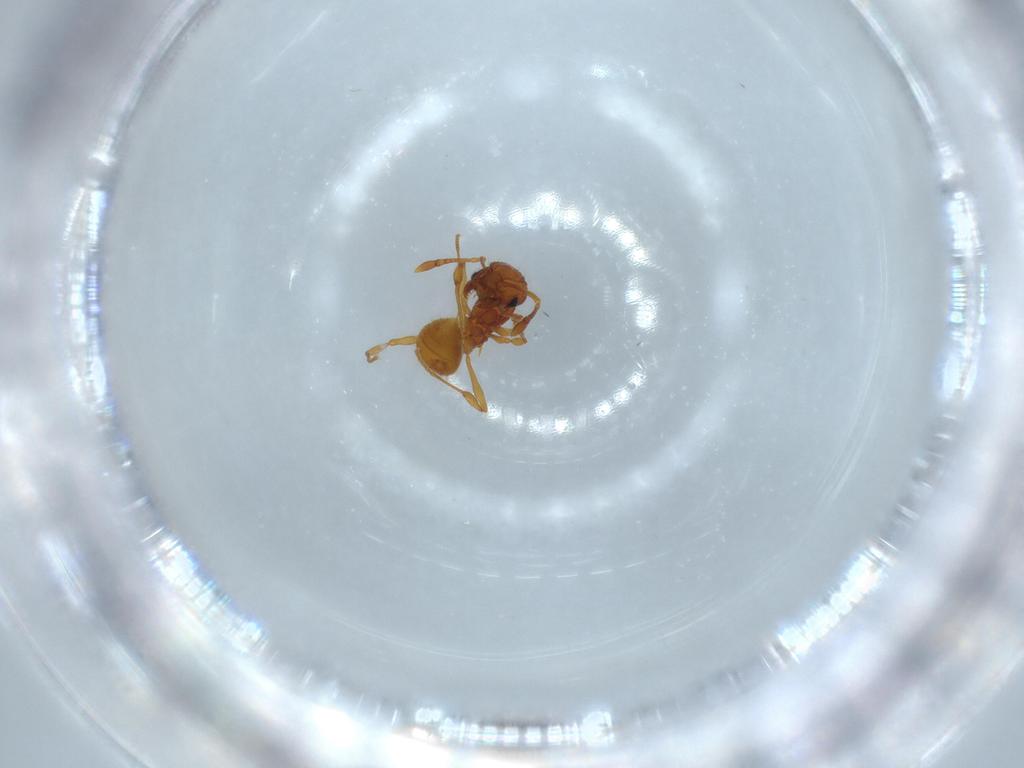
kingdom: Animalia
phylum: Arthropoda
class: Insecta
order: Hymenoptera
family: Formicidae
